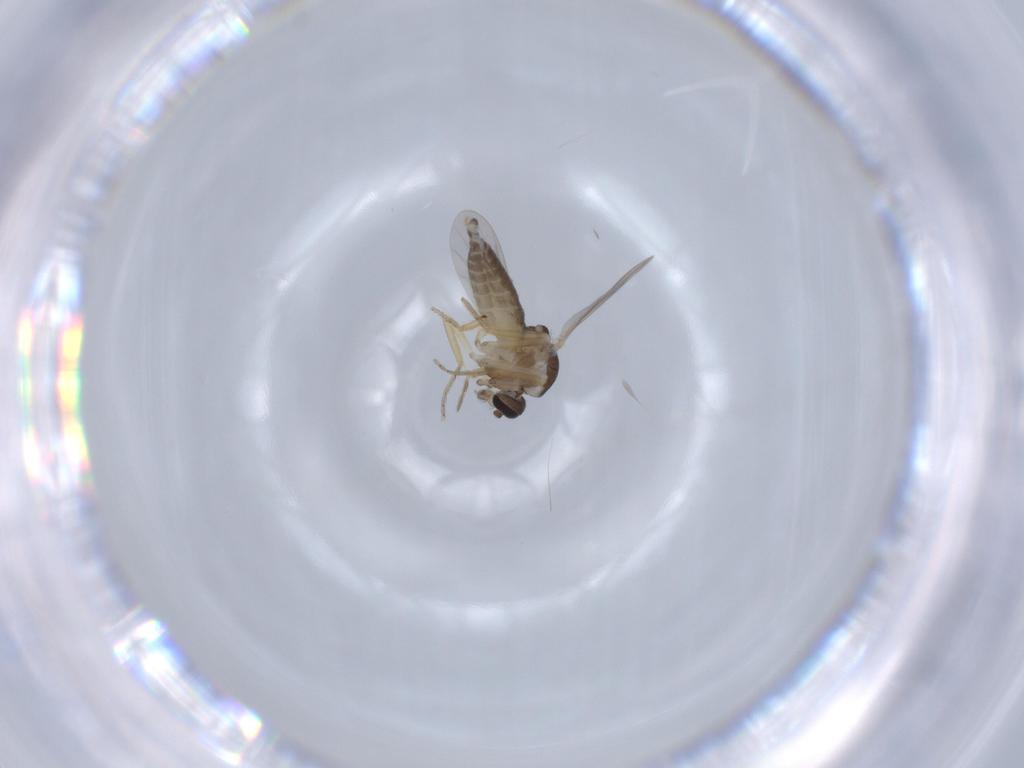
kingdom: Animalia
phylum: Arthropoda
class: Insecta
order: Diptera
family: Ceratopogonidae
